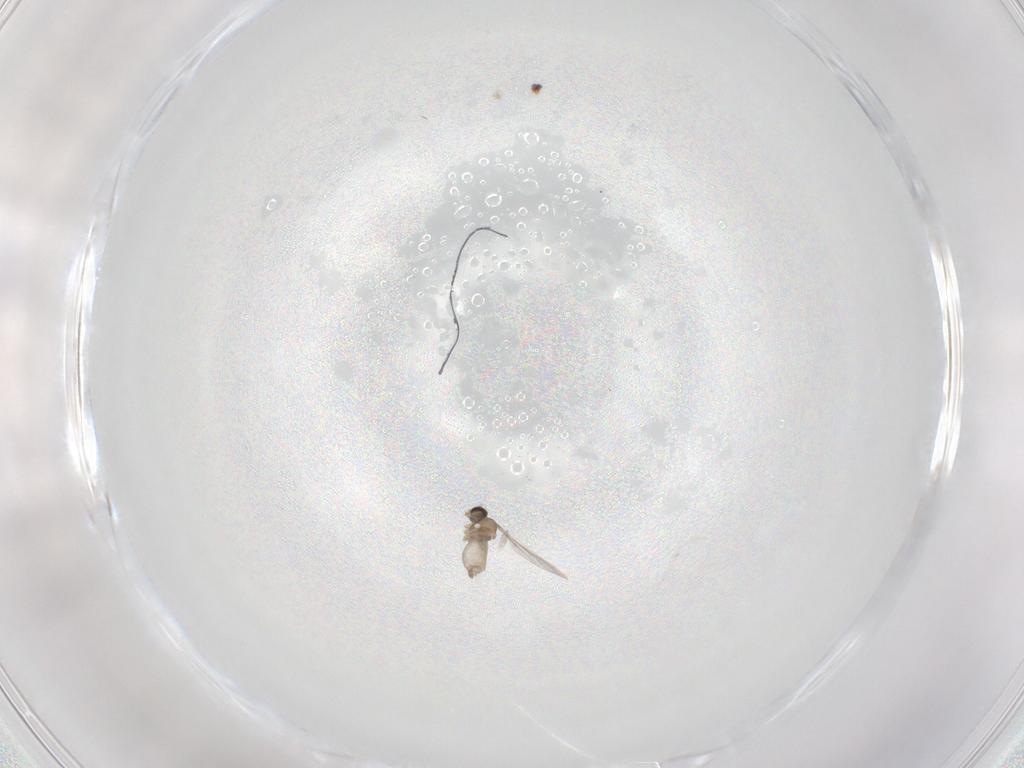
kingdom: Animalia
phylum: Arthropoda
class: Insecta
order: Diptera
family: Cecidomyiidae
